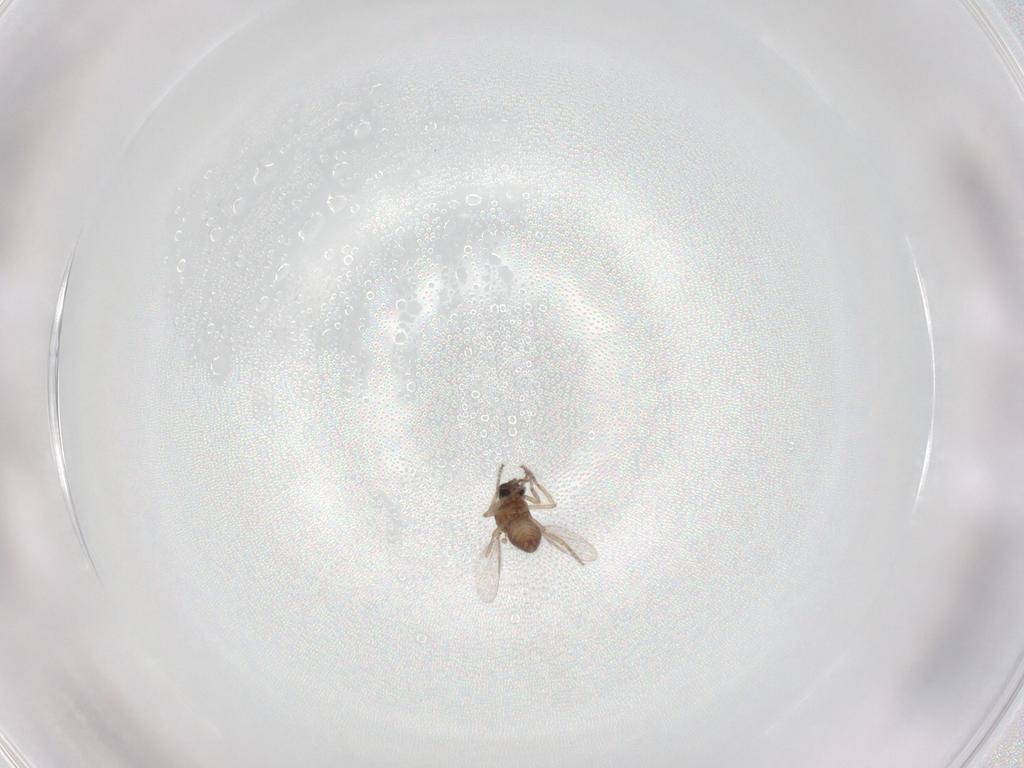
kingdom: Animalia
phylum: Arthropoda
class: Insecta
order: Diptera
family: Ceratopogonidae
